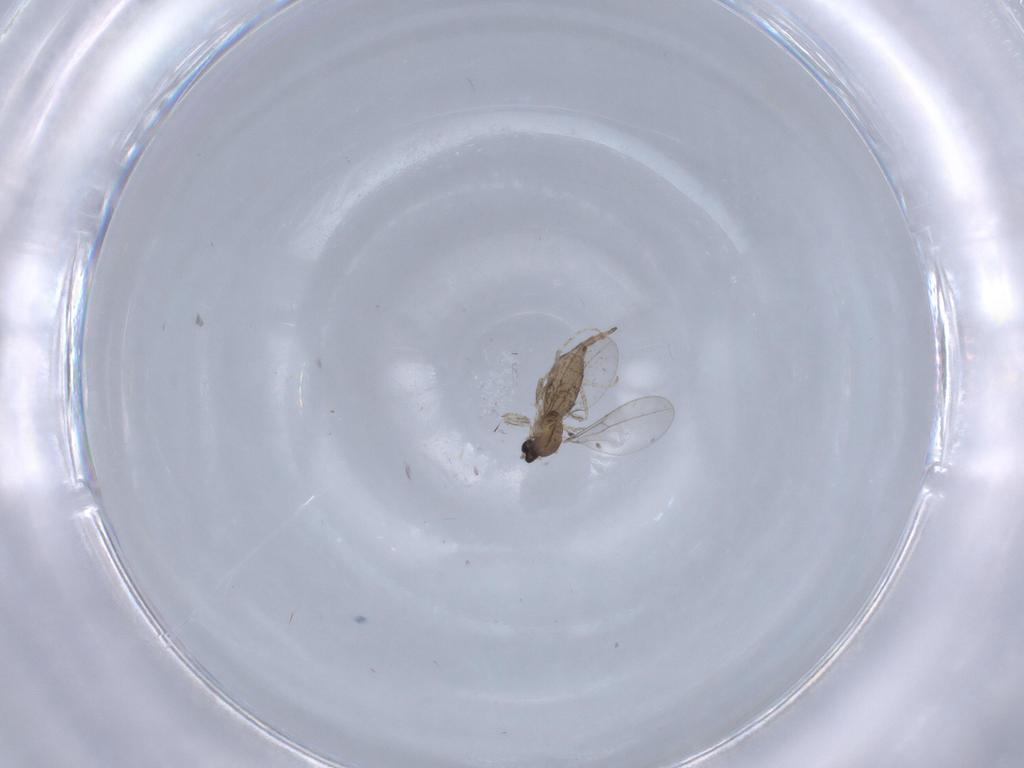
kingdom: Animalia
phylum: Arthropoda
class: Insecta
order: Diptera
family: Cecidomyiidae
